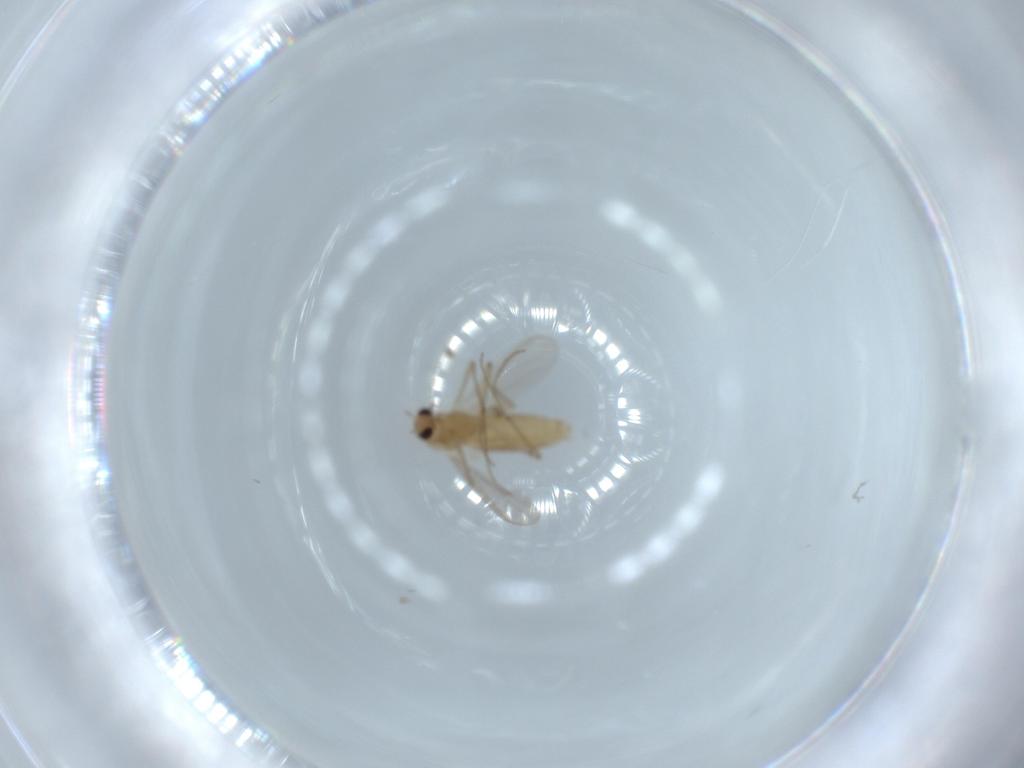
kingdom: Animalia
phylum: Arthropoda
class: Insecta
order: Diptera
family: Chironomidae
